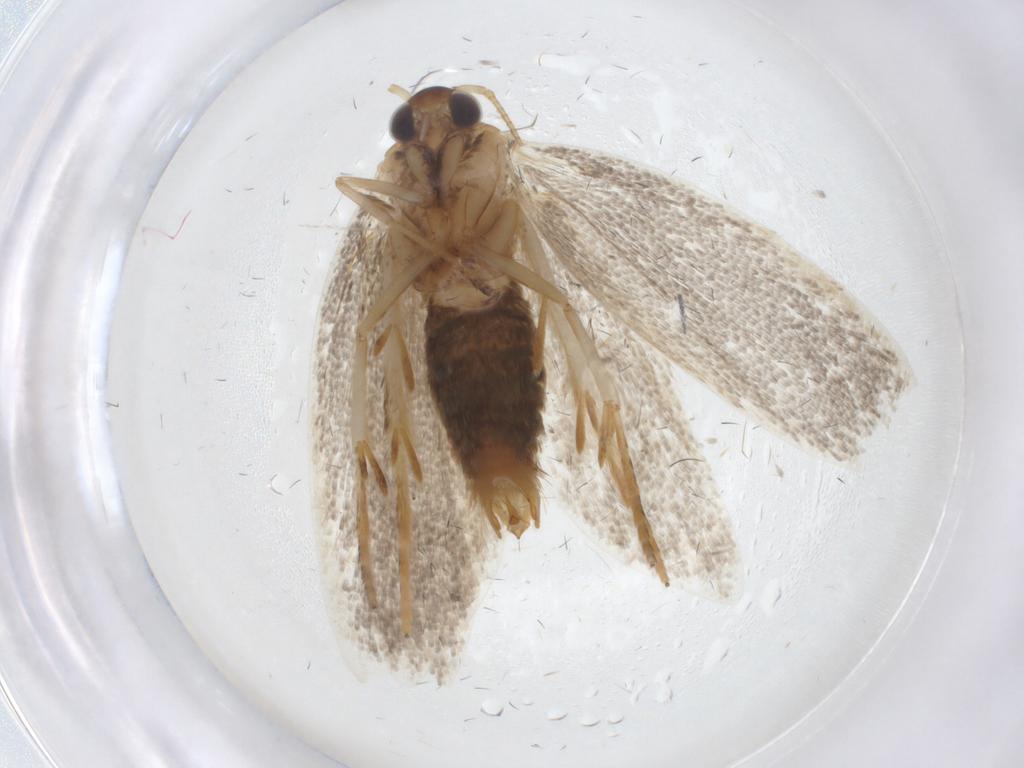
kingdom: Animalia
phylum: Arthropoda
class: Insecta
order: Lepidoptera
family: Oecophoridae
